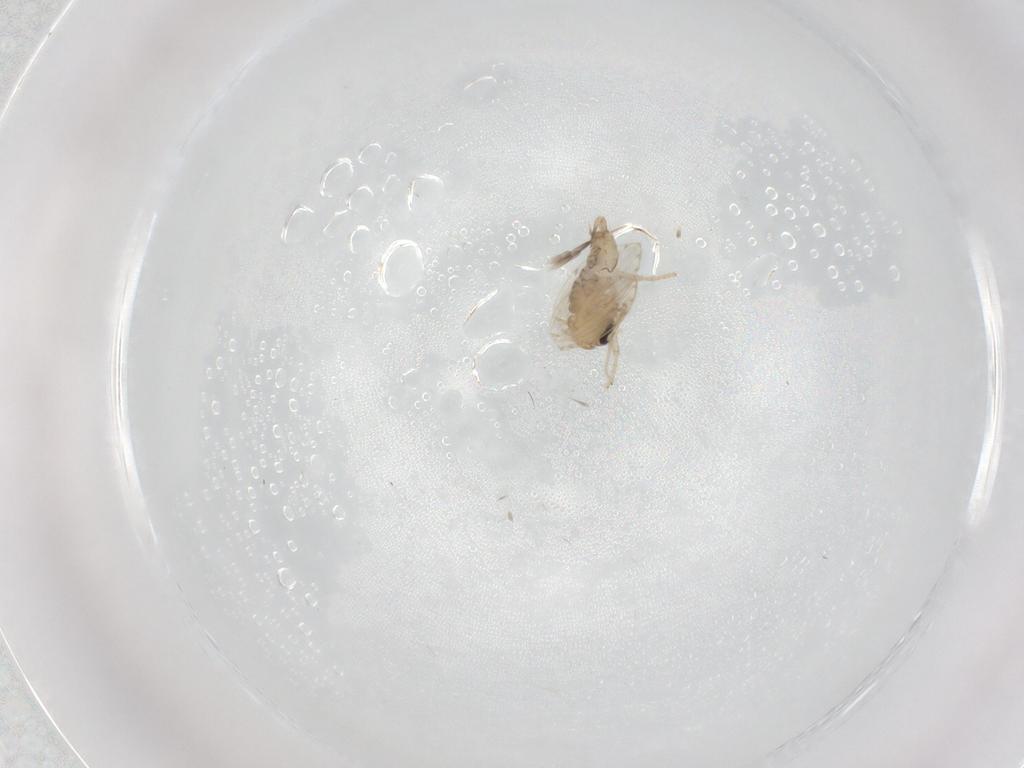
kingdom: Animalia
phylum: Arthropoda
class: Insecta
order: Diptera
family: Psychodidae
